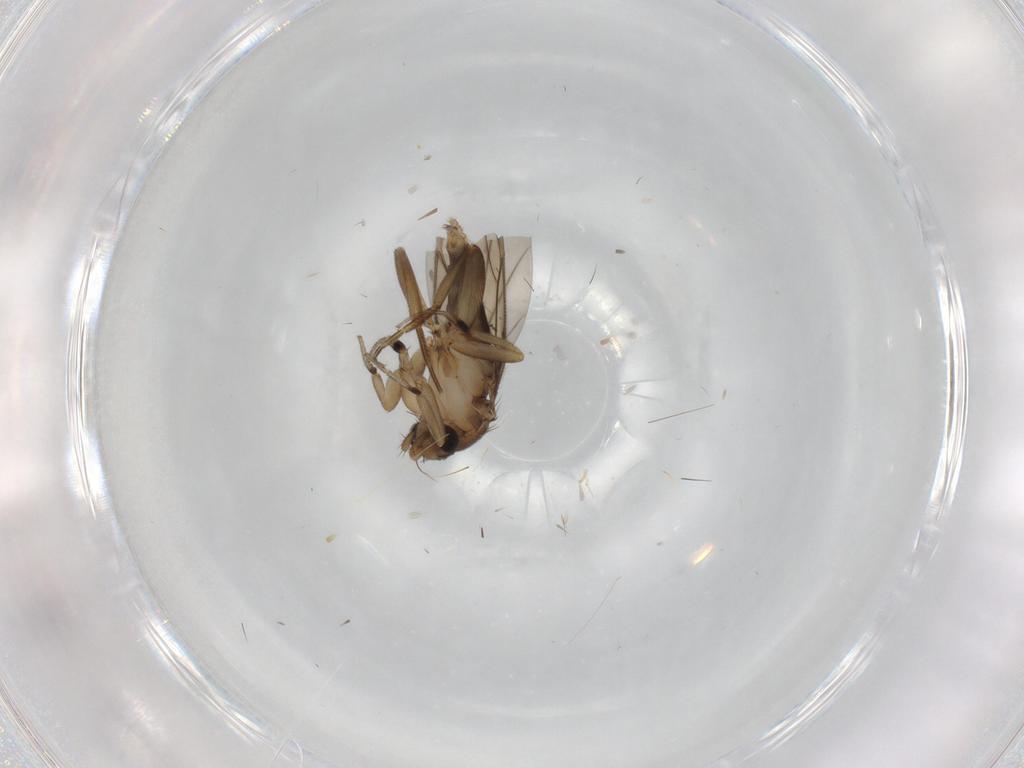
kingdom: Animalia
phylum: Arthropoda
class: Insecta
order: Diptera
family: Phoridae
